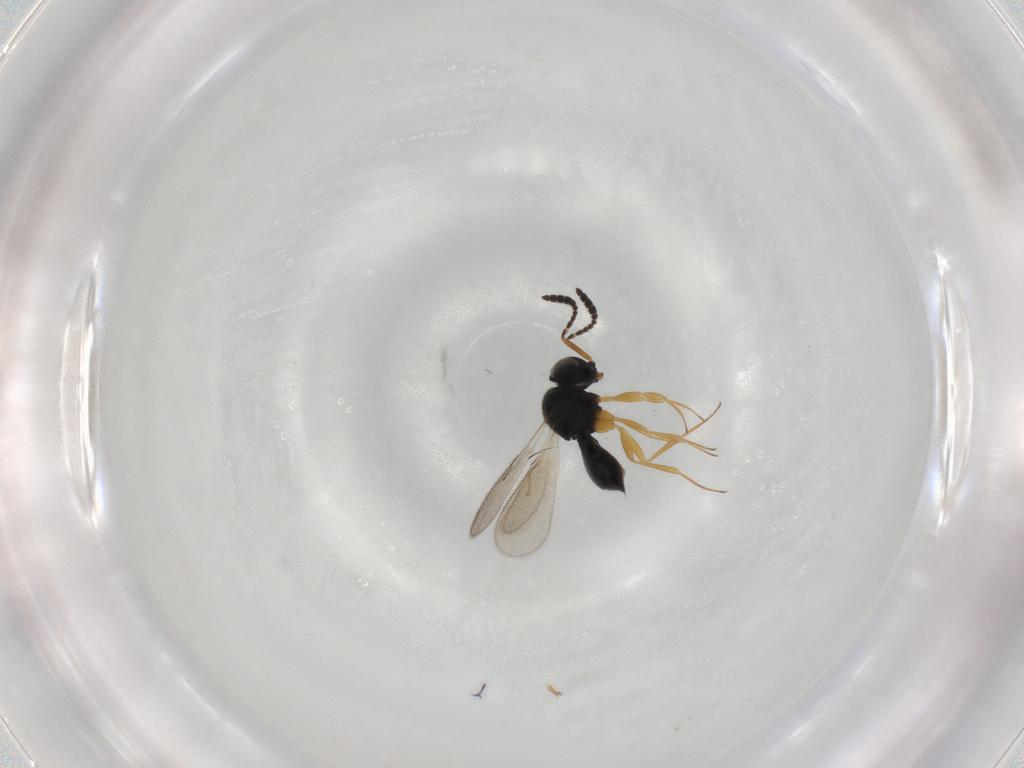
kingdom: Animalia
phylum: Arthropoda
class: Insecta
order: Hymenoptera
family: Scelionidae
